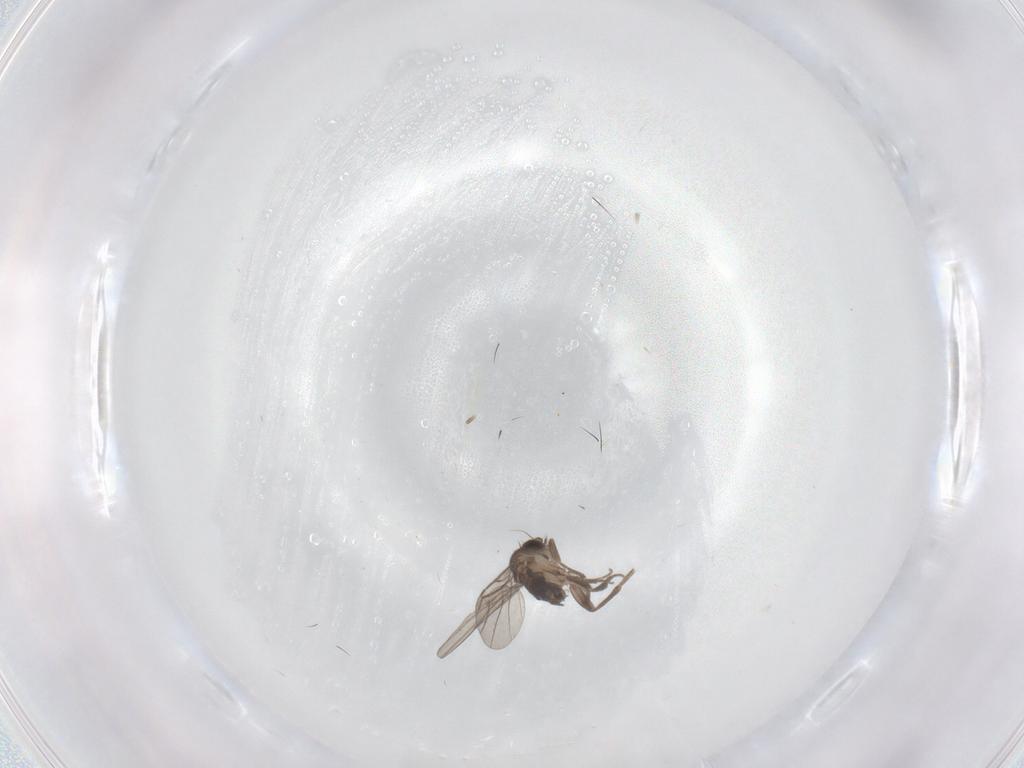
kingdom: Animalia
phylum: Arthropoda
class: Insecta
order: Diptera
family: Phoridae
